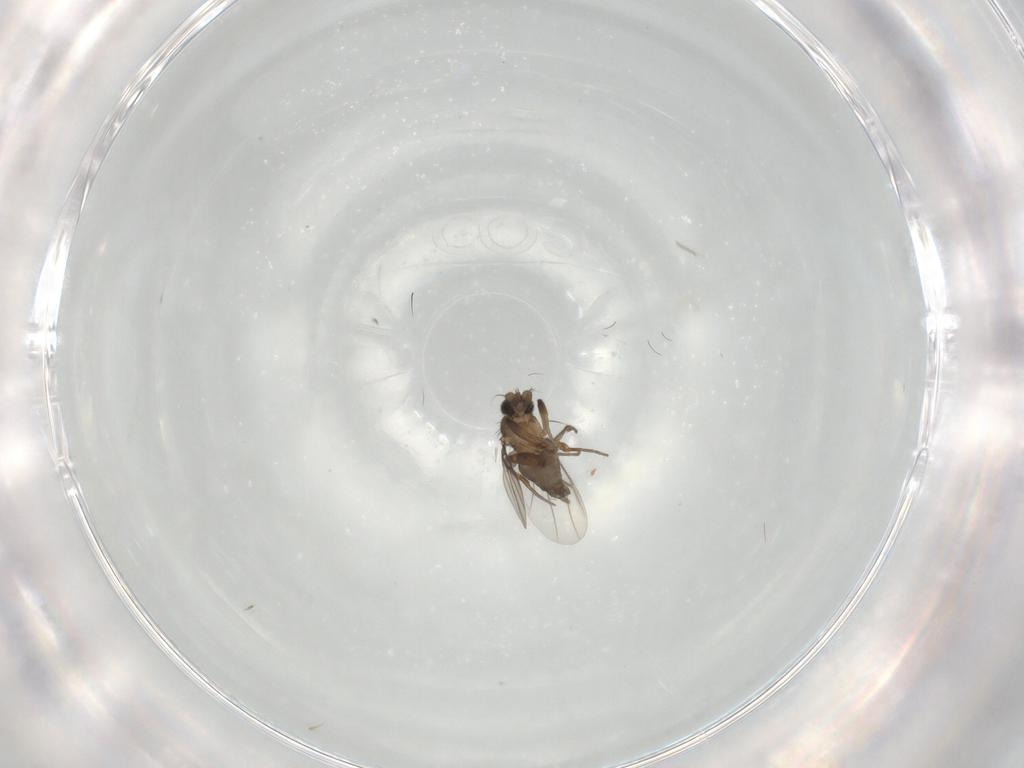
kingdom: Animalia
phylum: Arthropoda
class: Insecta
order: Diptera
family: Phoridae
